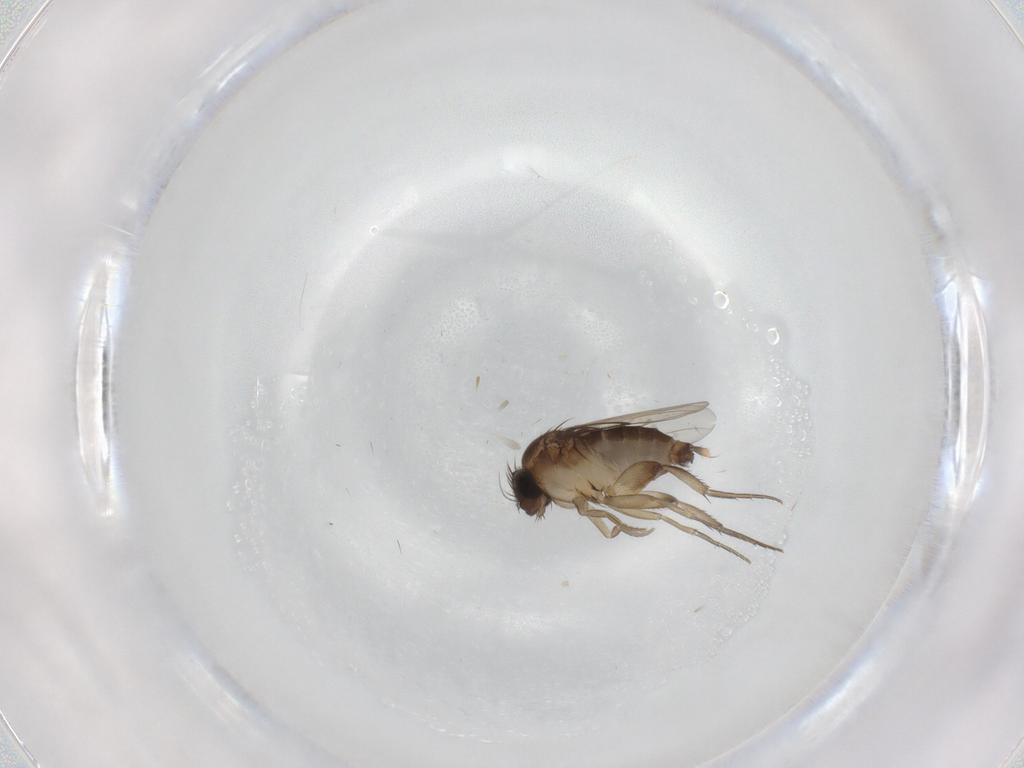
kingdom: Animalia
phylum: Arthropoda
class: Insecta
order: Diptera
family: Phoridae
